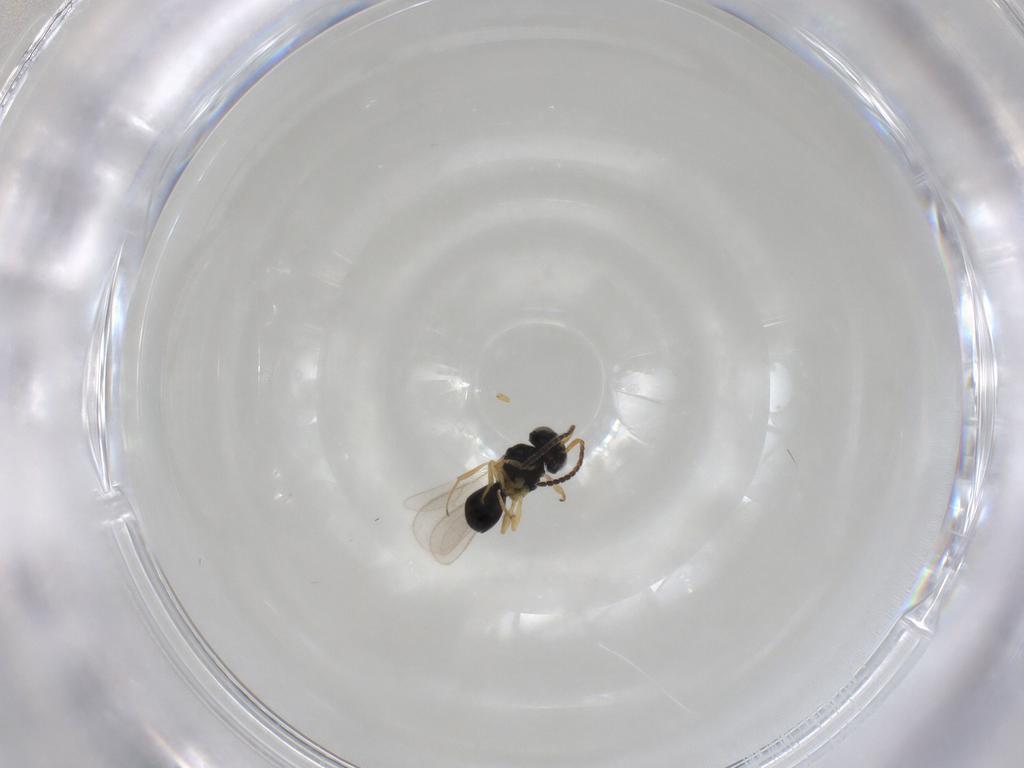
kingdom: Animalia
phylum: Arthropoda
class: Insecta
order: Hymenoptera
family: Scelionidae
